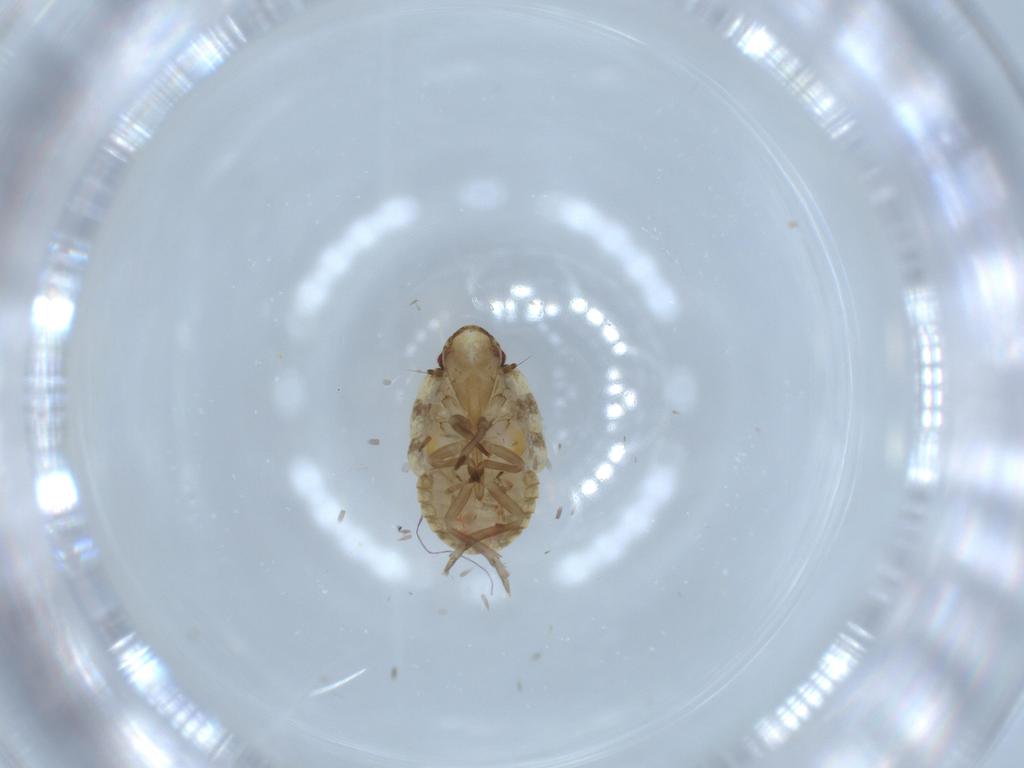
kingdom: Animalia
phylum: Arthropoda
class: Insecta
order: Hemiptera
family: Flatidae
